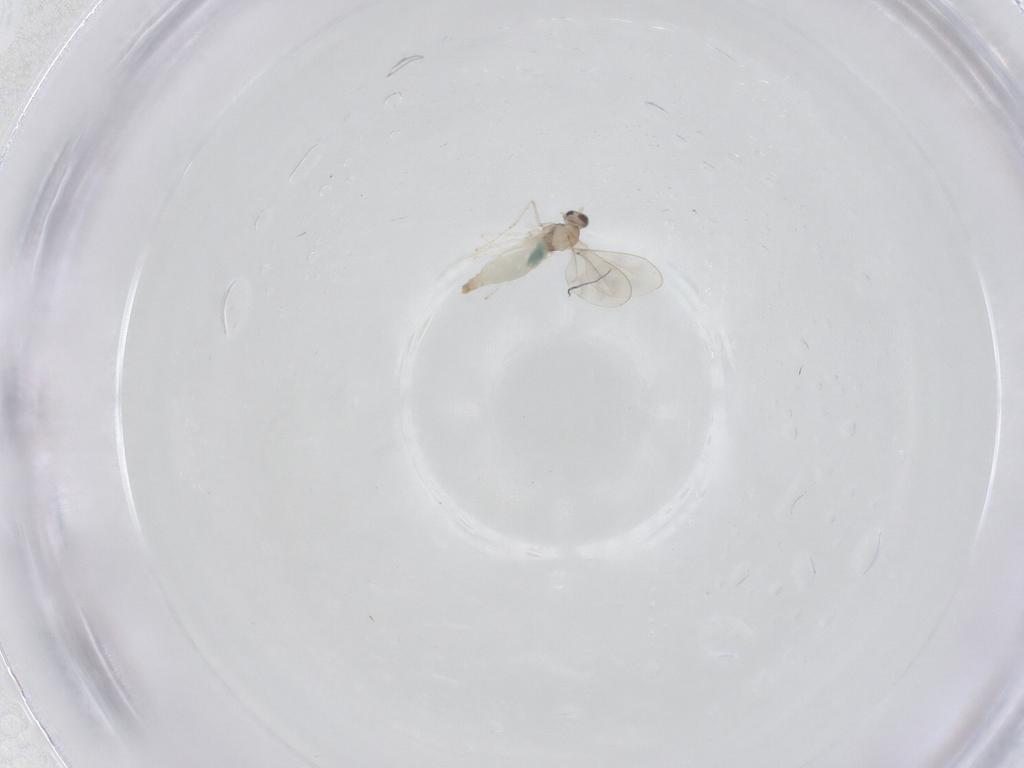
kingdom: Animalia
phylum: Arthropoda
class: Insecta
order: Diptera
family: Cecidomyiidae
